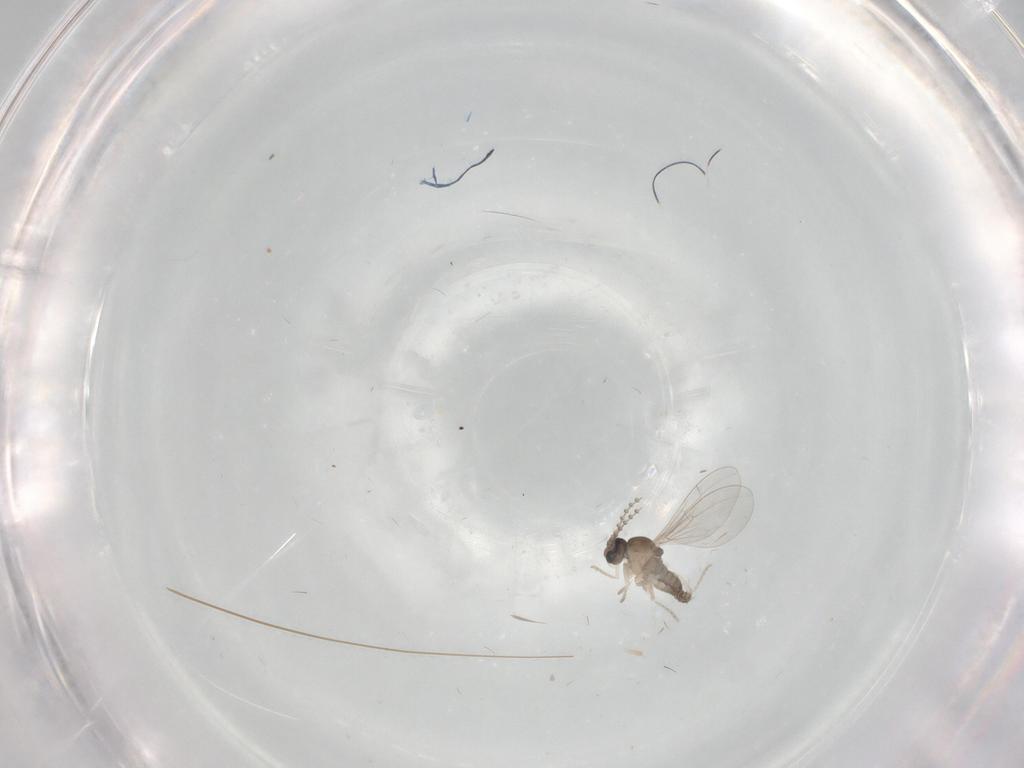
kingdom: Animalia
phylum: Arthropoda
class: Insecta
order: Diptera
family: Cecidomyiidae
